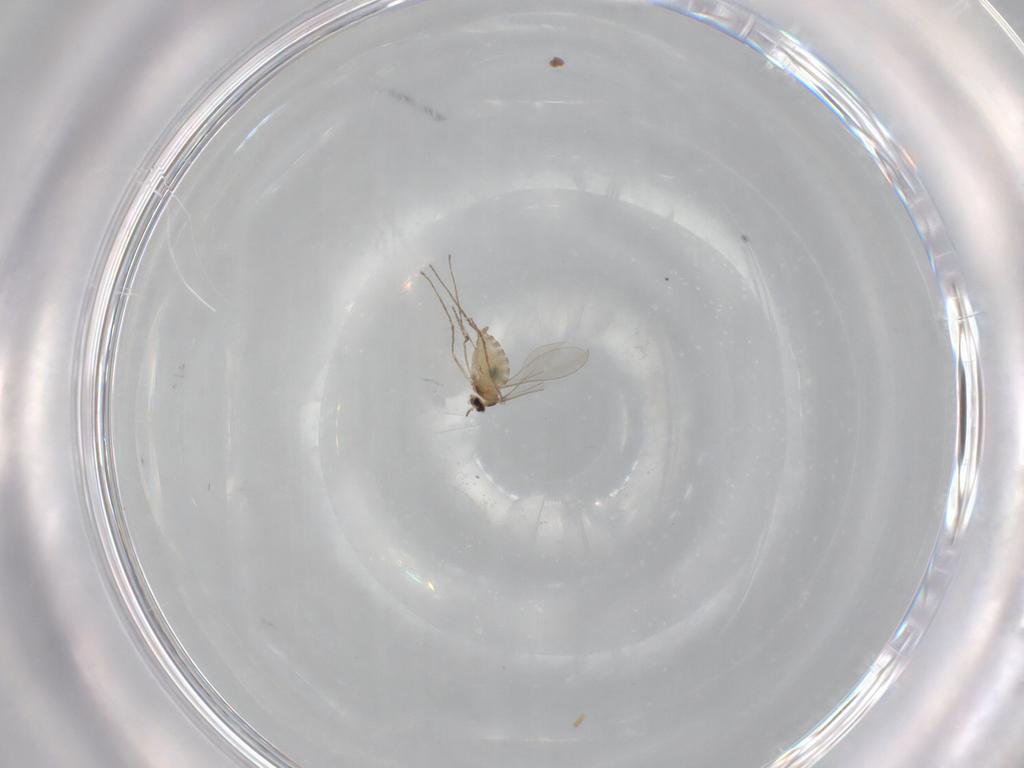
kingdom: Animalia
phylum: Arthropoda
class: Insecta
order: Diptera
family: Cecidomyiidae
